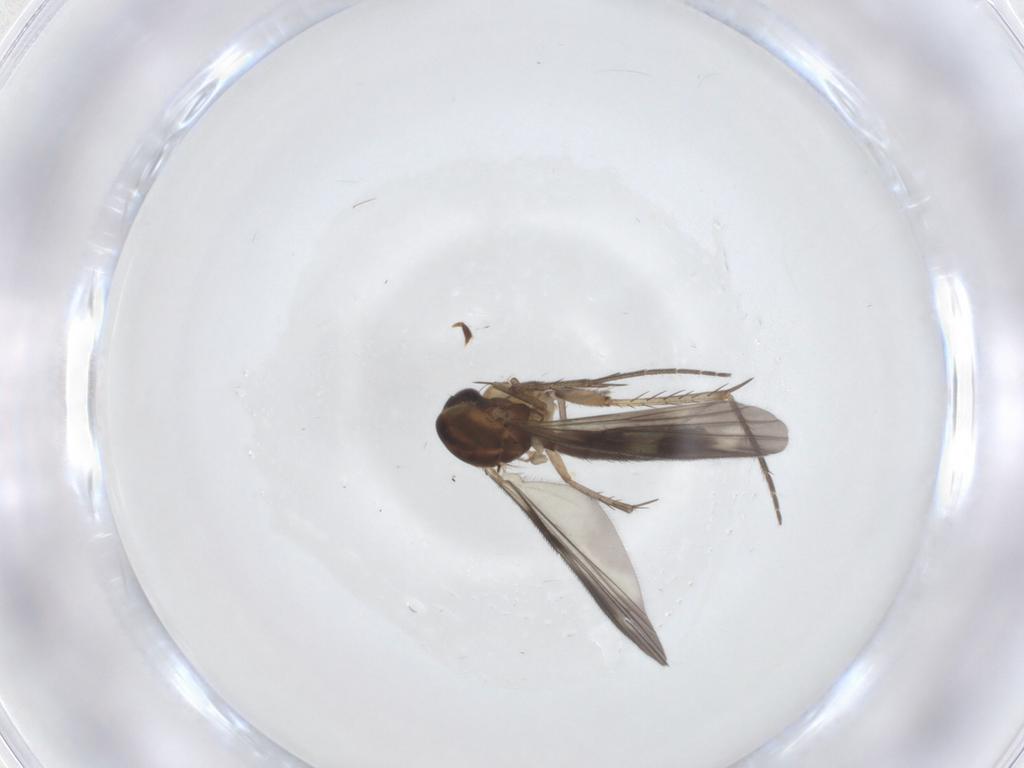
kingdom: Animalia
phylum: Arthropoda
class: Insecta
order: Diptera
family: Mycetophilidae
